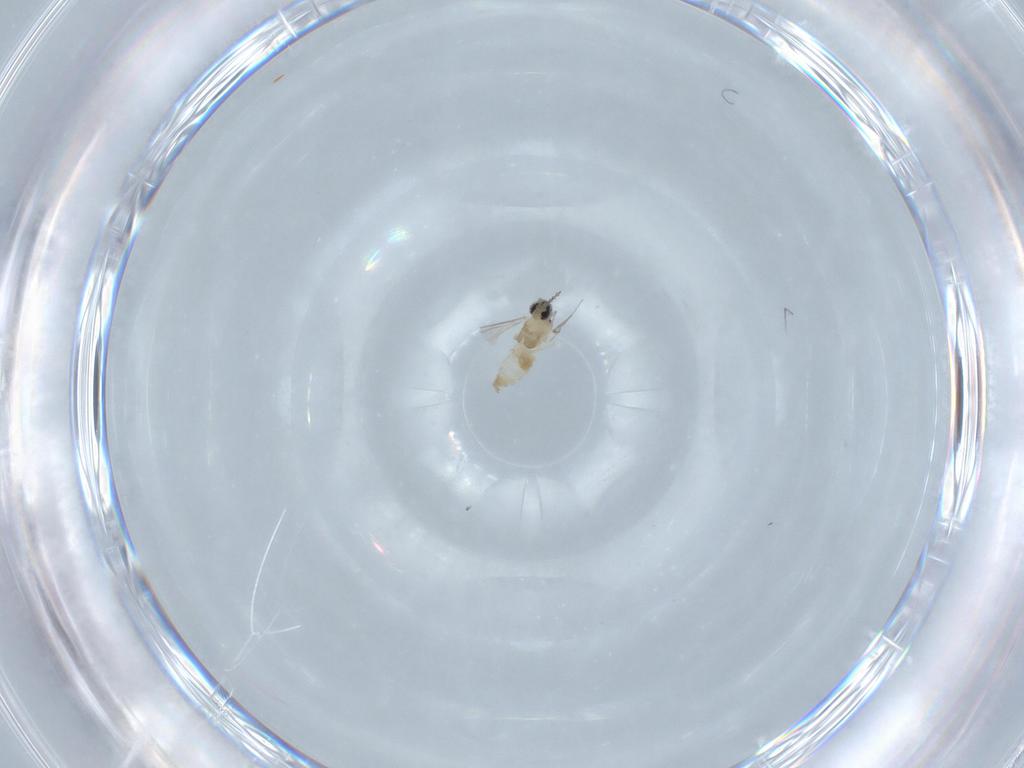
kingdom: Animalia
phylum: Arthropoda
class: Insecta
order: Diptera
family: Cecidomyiidae
